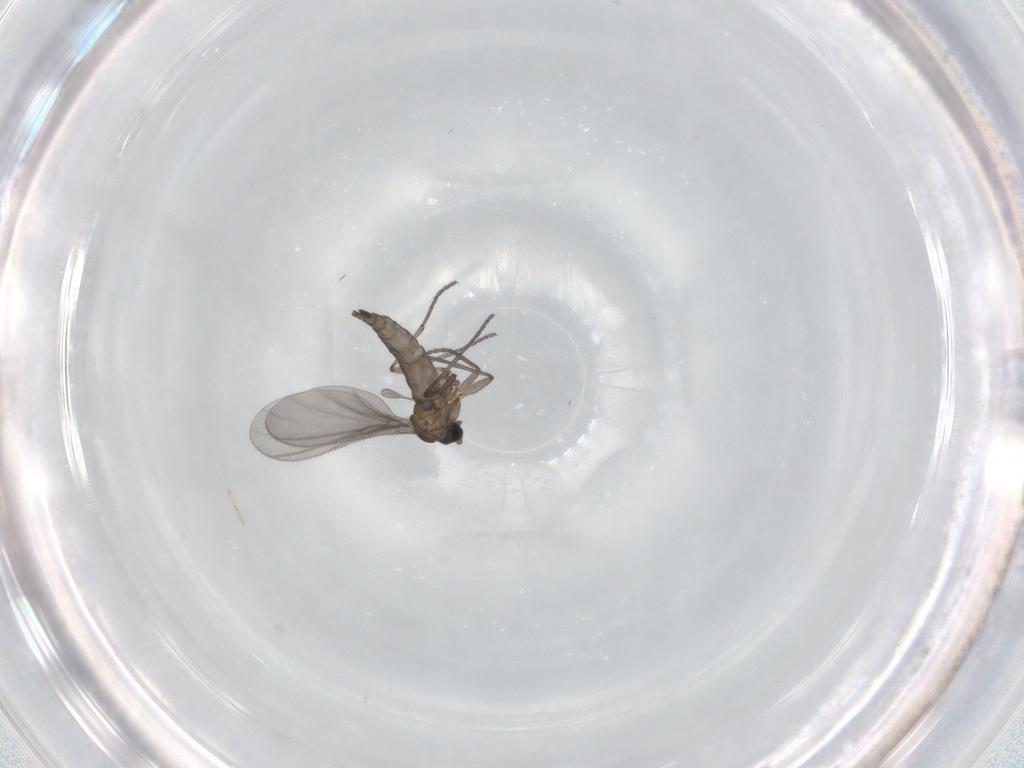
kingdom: Animalia
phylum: Arthropoda
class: Insecta
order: Diptera
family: Sciaridae
